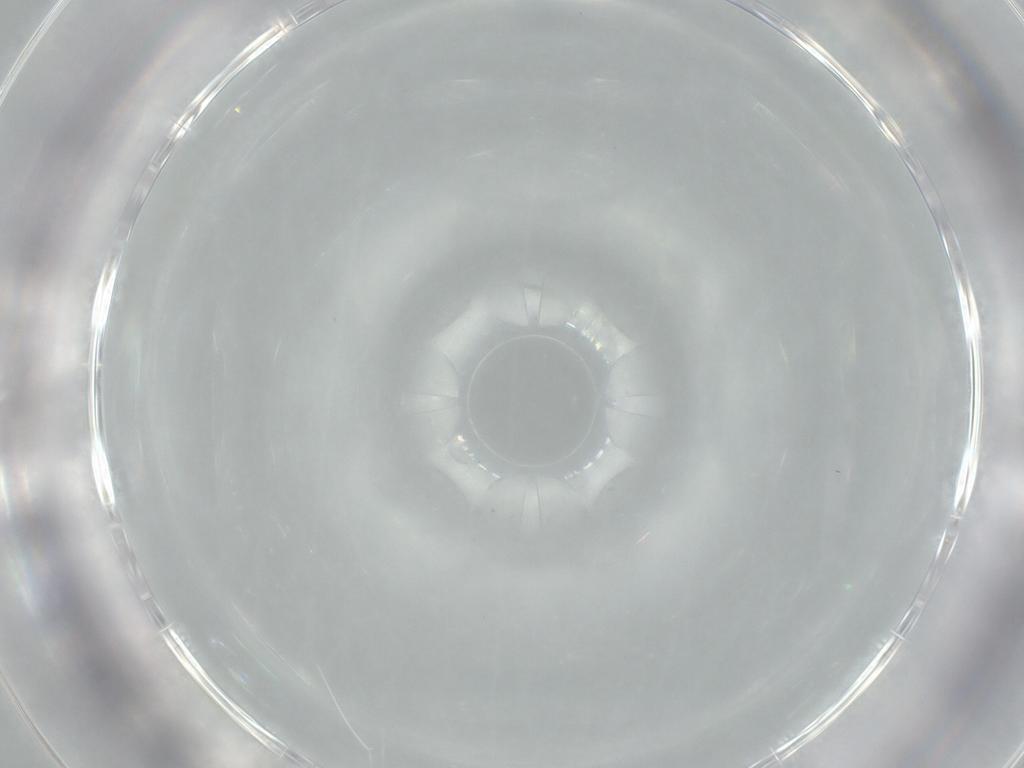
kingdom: Animalia
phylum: Arthropoda
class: Insecta
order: Diptera
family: Cecidomyiidae
